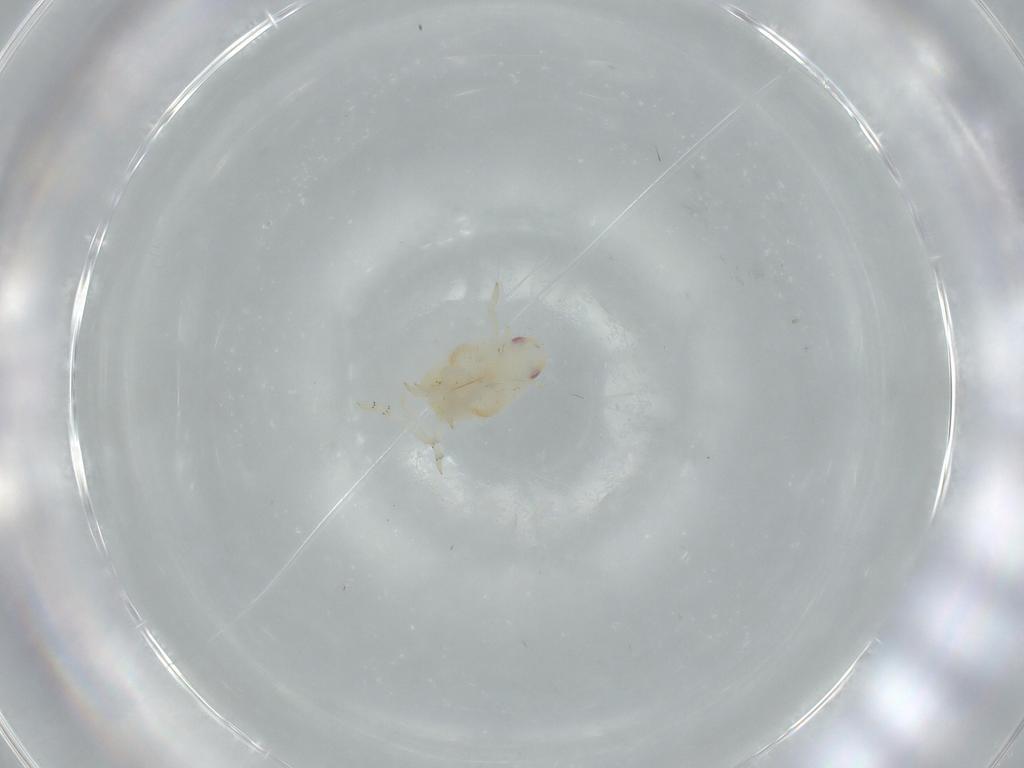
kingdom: Animalia
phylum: Arthropoda
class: Insecta
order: Hemiptera
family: Flatidae
